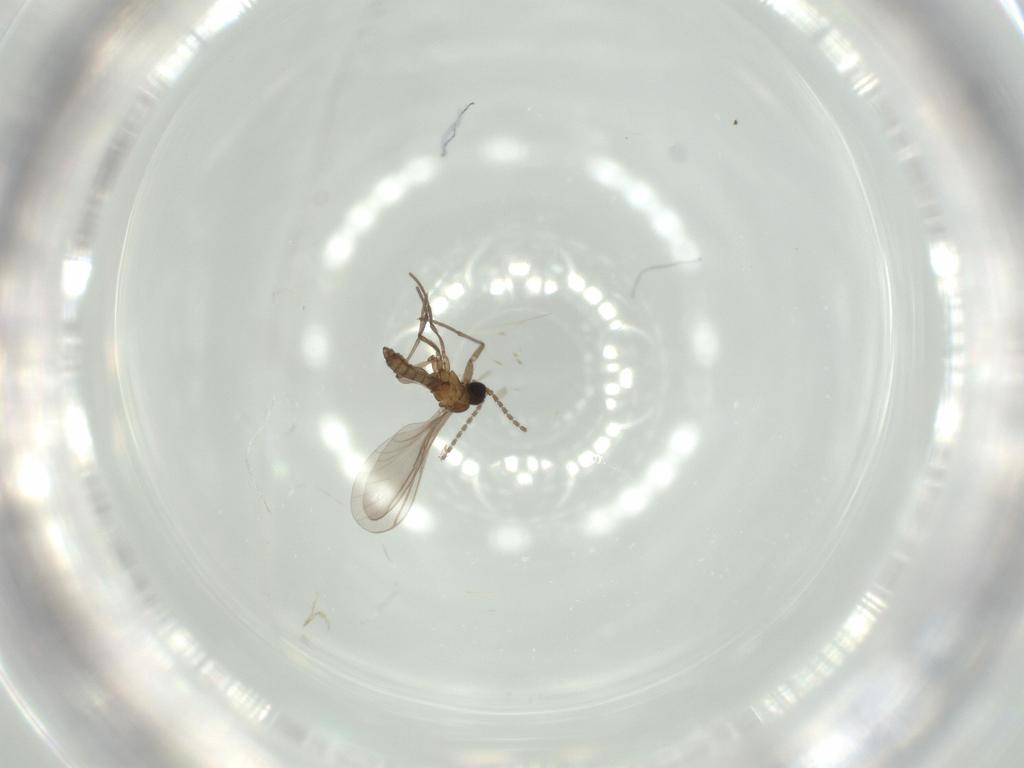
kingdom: Animalia
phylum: Arthropoda
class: Insecta
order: Diptera
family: Sciaridae
